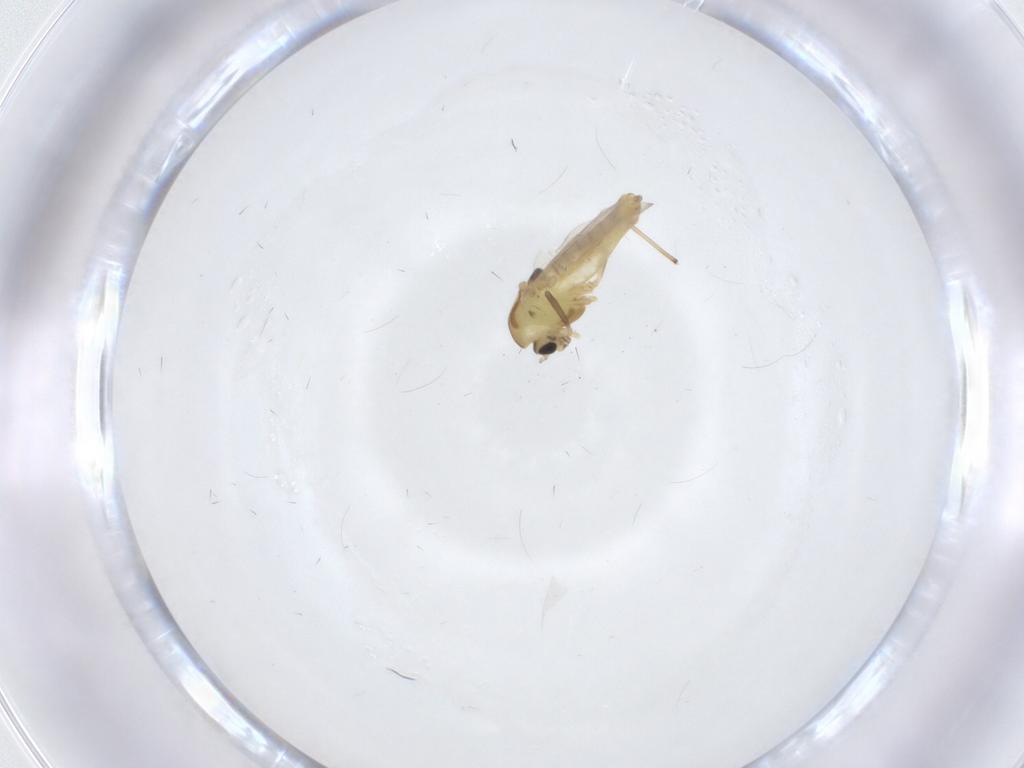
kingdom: Animalia
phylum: Arthropoda
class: Insecta
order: Diptera
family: Chironomidae
